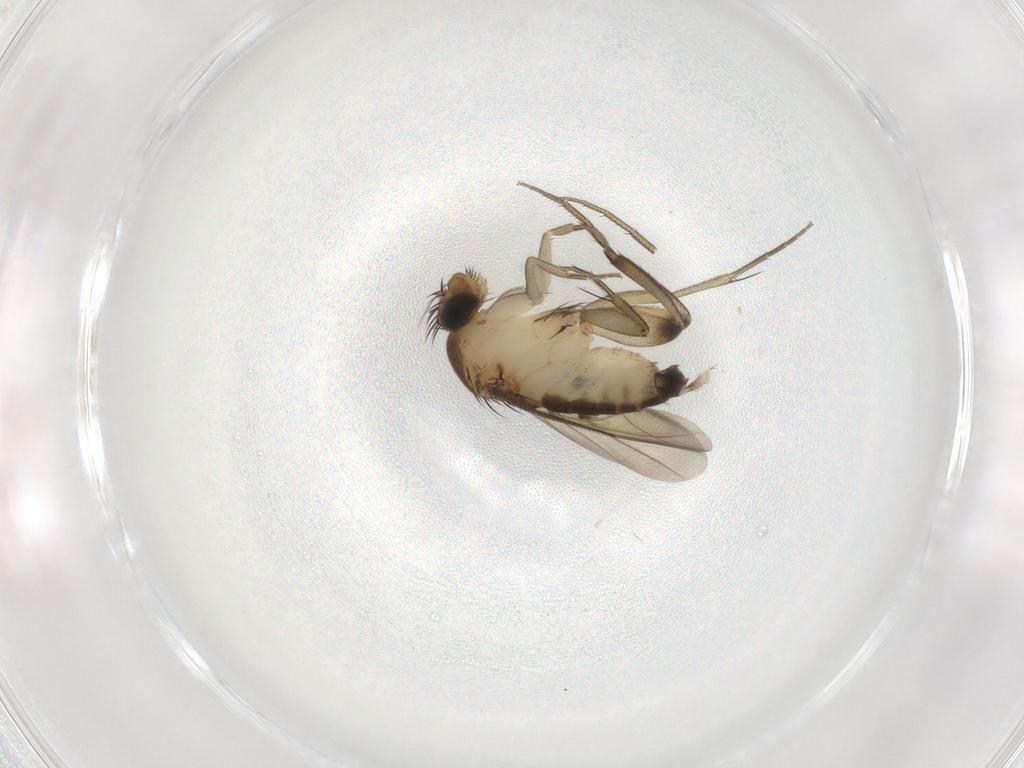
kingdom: Animalia
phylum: Arthropoda
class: Insecta
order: Diptera
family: Phoridae
